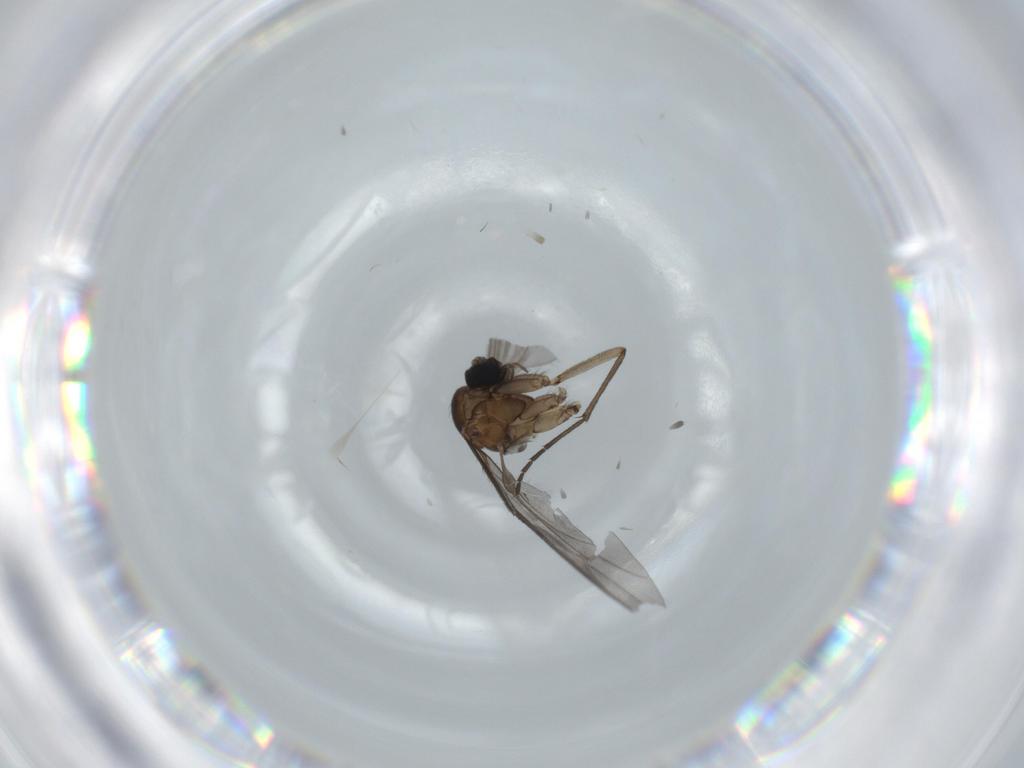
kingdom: Animalia
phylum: Arthropoda
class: Insecta
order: Diptera
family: Sciaridae
